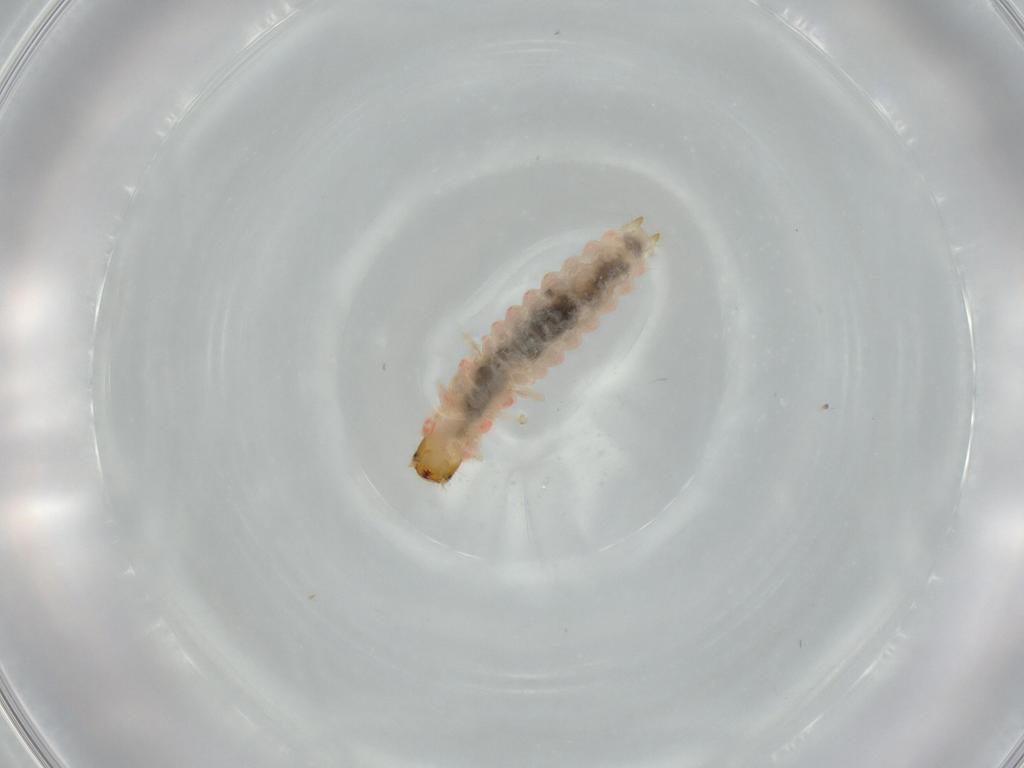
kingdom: Animalia
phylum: Arthropoda
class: Insecta
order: Coleoptera
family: Melyridae
